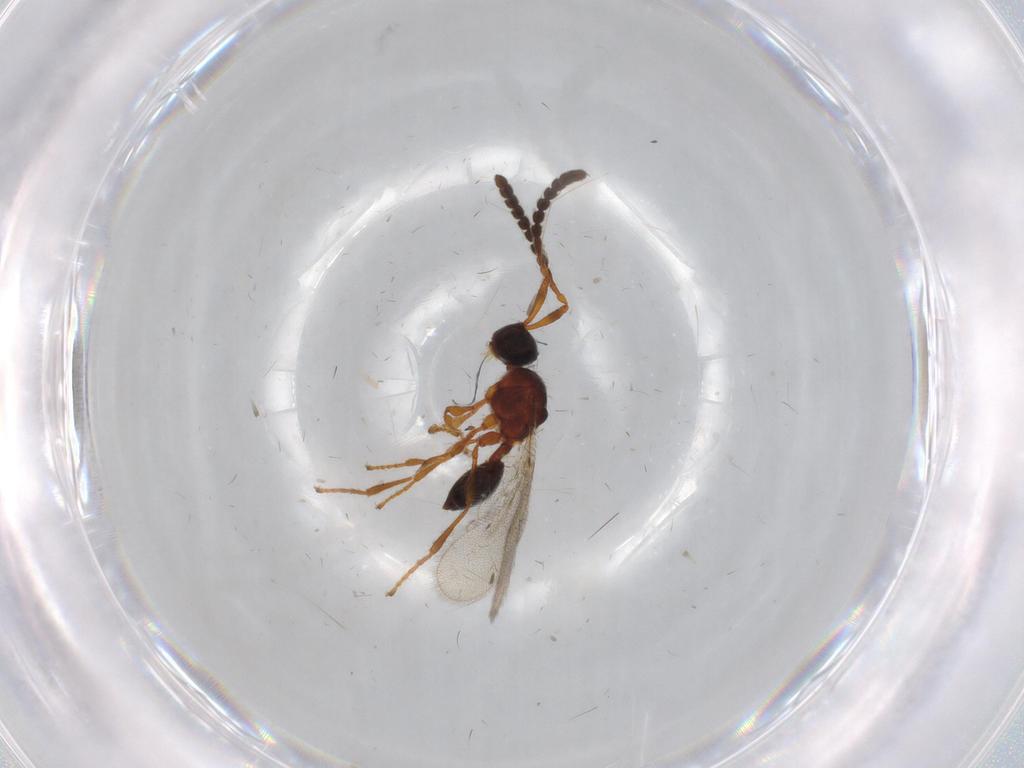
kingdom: Animalia
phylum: Arthropoda
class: Insecta
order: Hymenoptera
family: Diapriidae
